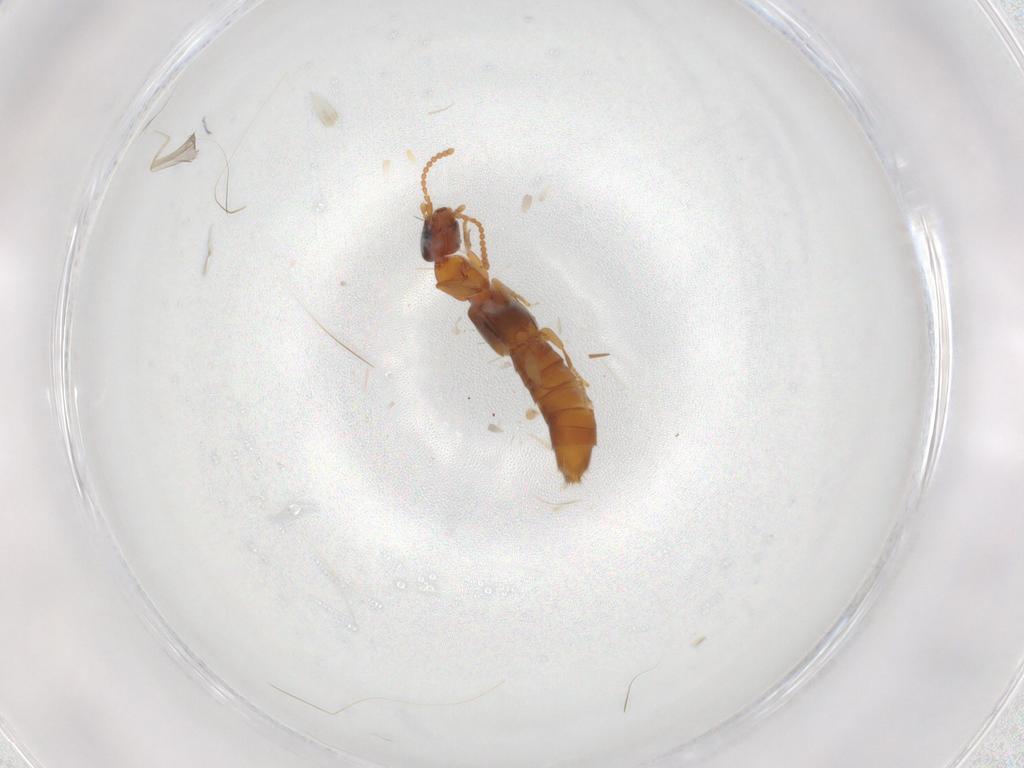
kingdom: Animalia
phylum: Arthropoda
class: Insecta
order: Coleoptera
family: Scarabaeidae
